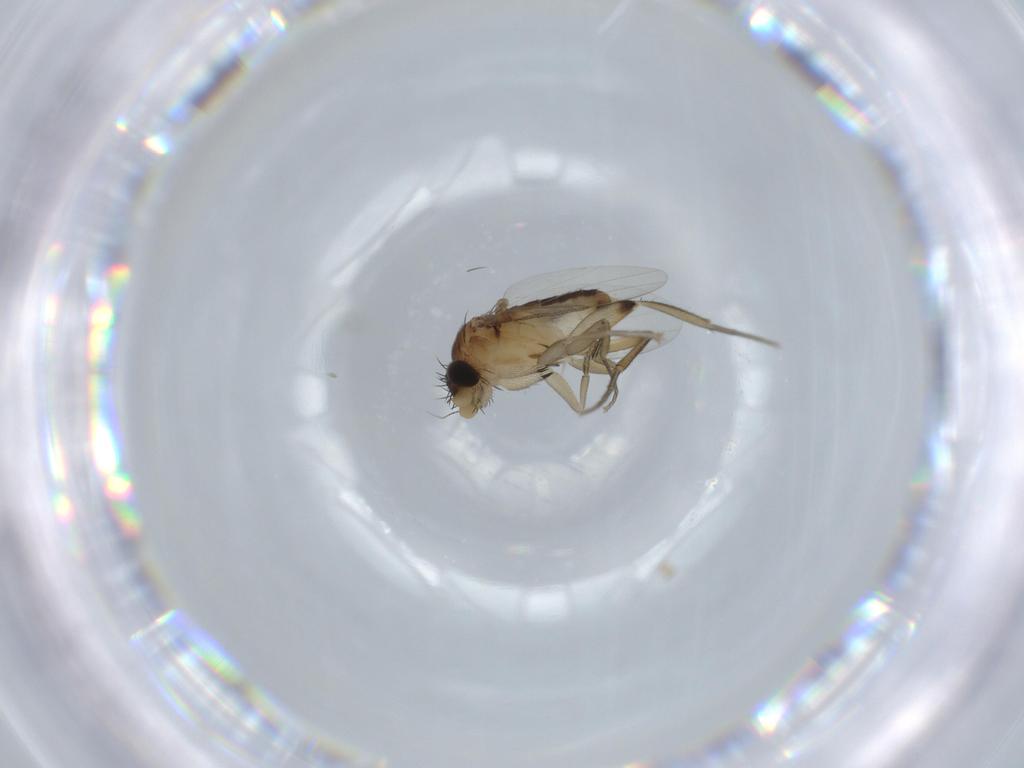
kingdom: Animalia
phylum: Arthropoda
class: Insecta
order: Diptera
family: Phoridae
